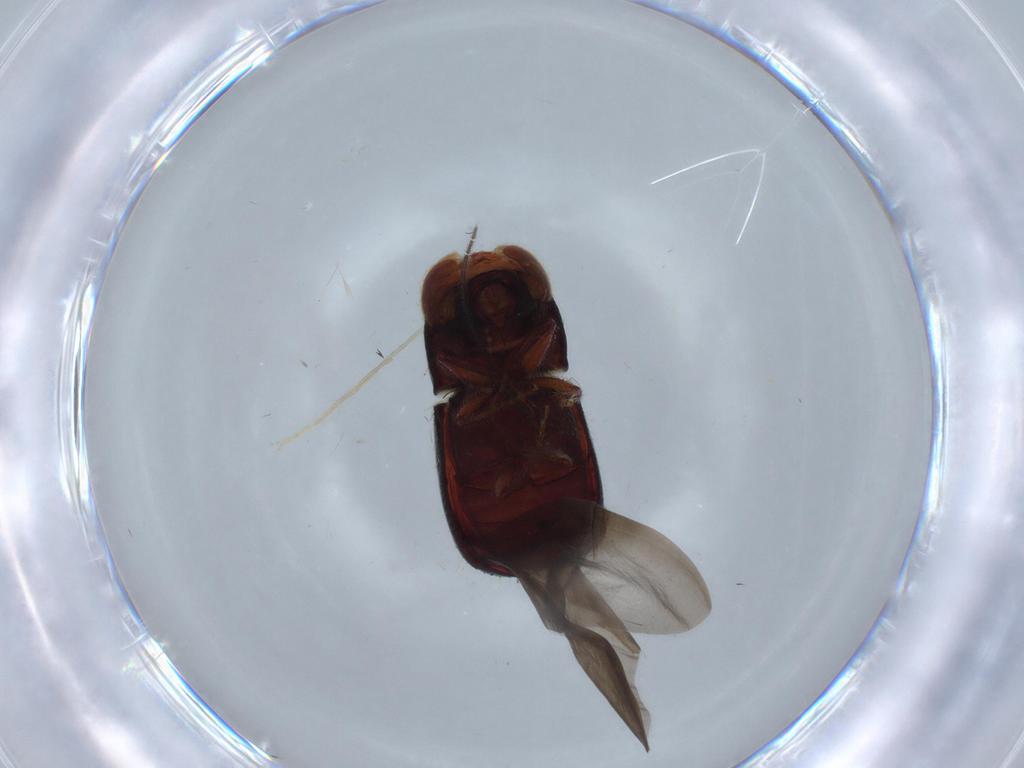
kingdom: Animalia
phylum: Arthropoda
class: Insecta
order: Coleoptera
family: Curculionidae
